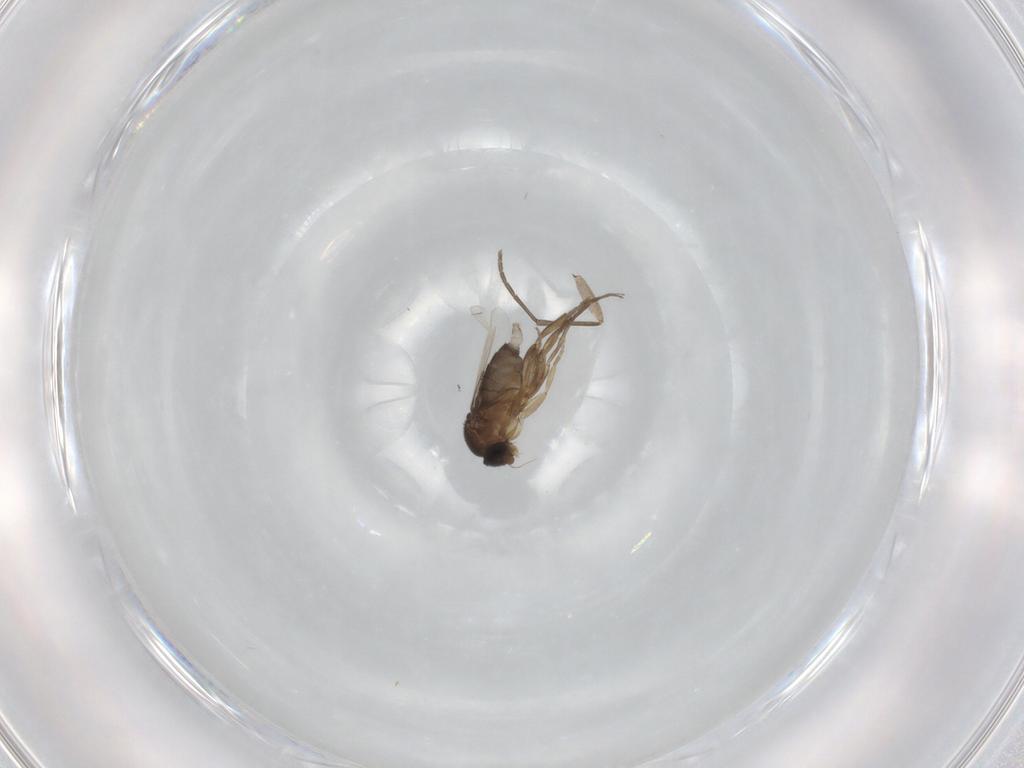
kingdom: Animalia
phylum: Arthropoda
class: Insecta
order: Diptera
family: Phoridae
